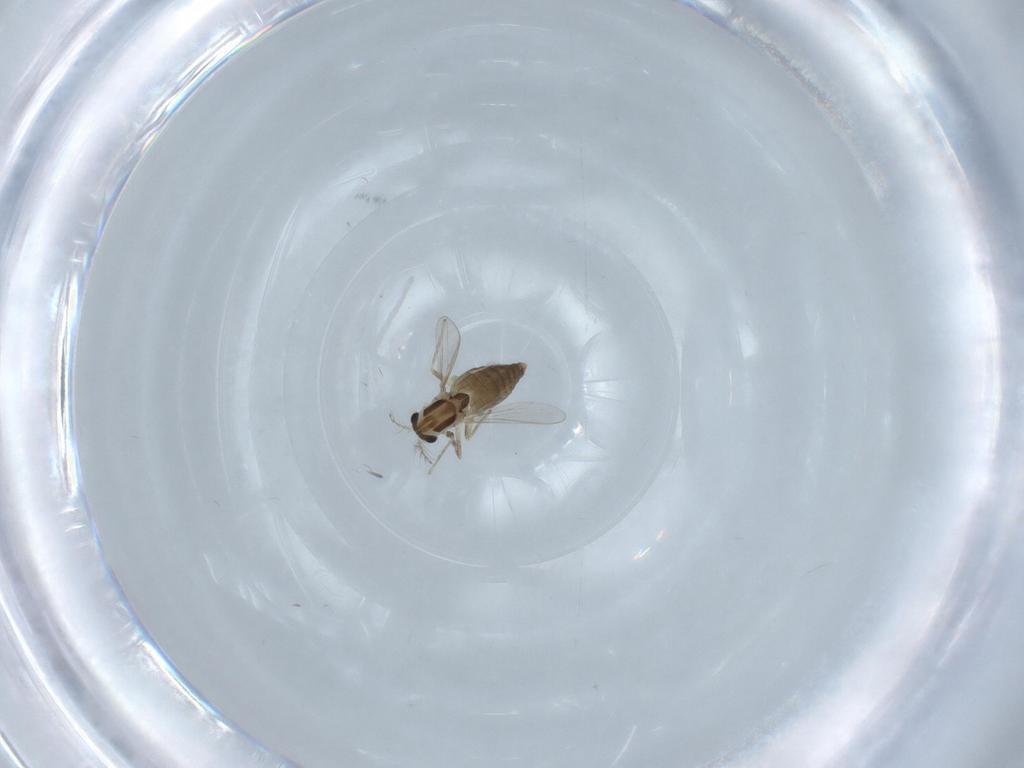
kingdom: Animalia
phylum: Arthropoda
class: Insecta
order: Diptera
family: Chironomidae
